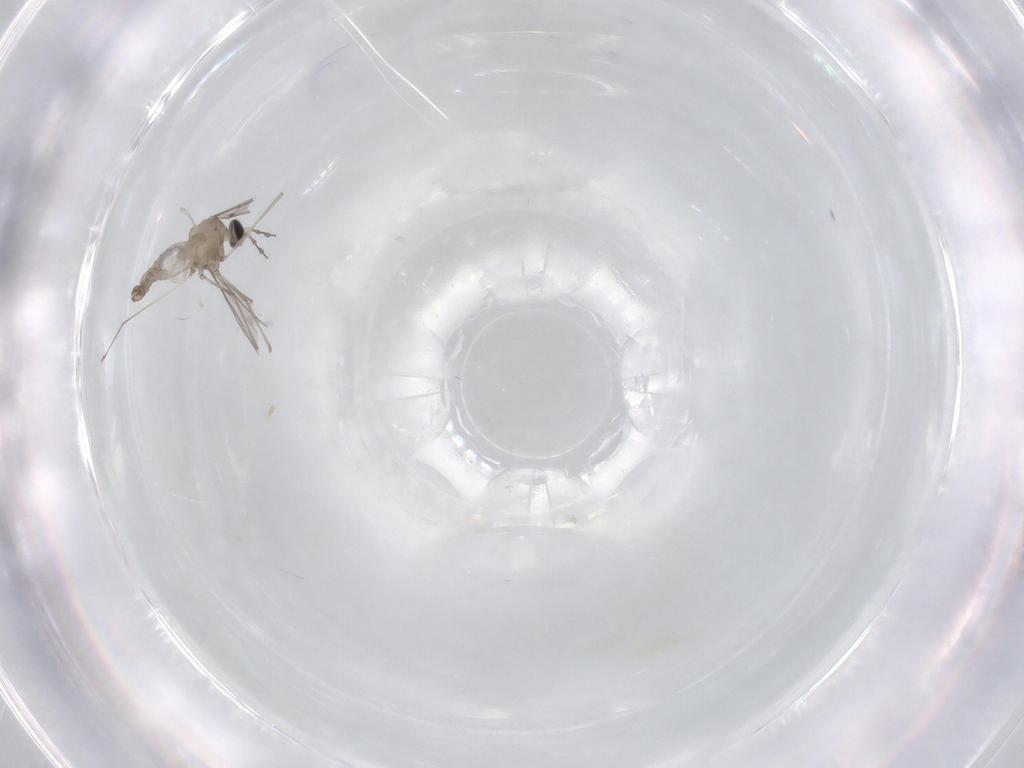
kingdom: Animalia
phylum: Arthropoda
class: Insecta
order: Diptera
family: Cecidomyiidae
